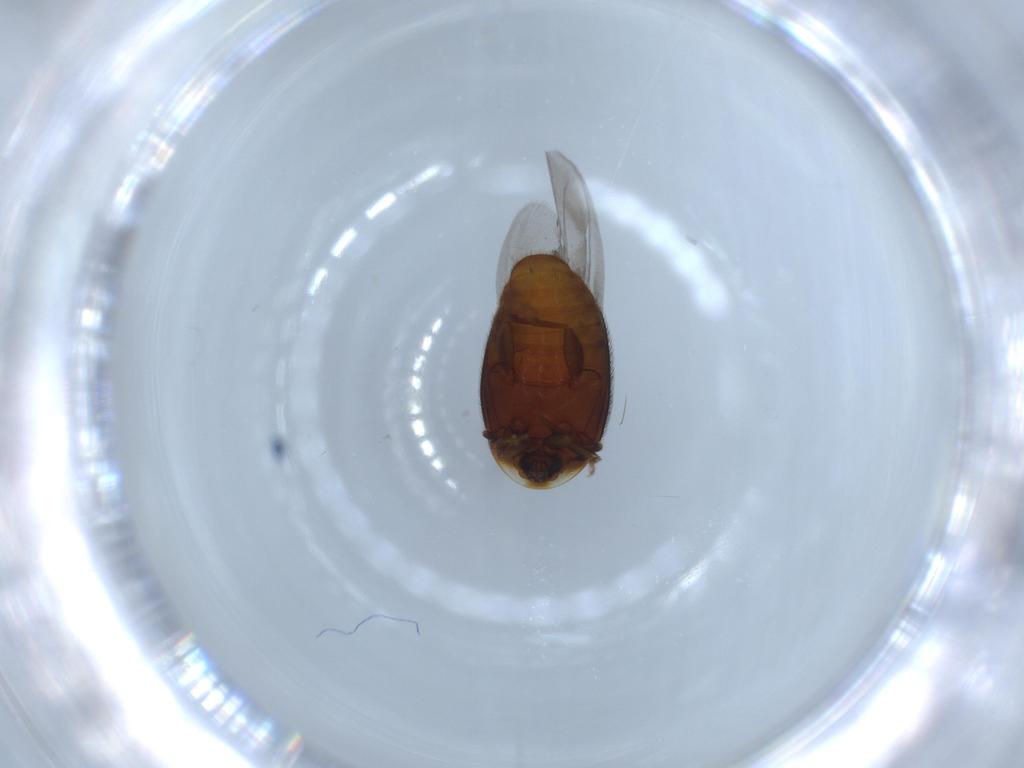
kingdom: Animalia
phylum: Arthropoda
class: Insecta
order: Coleoptera
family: Corylophidae
